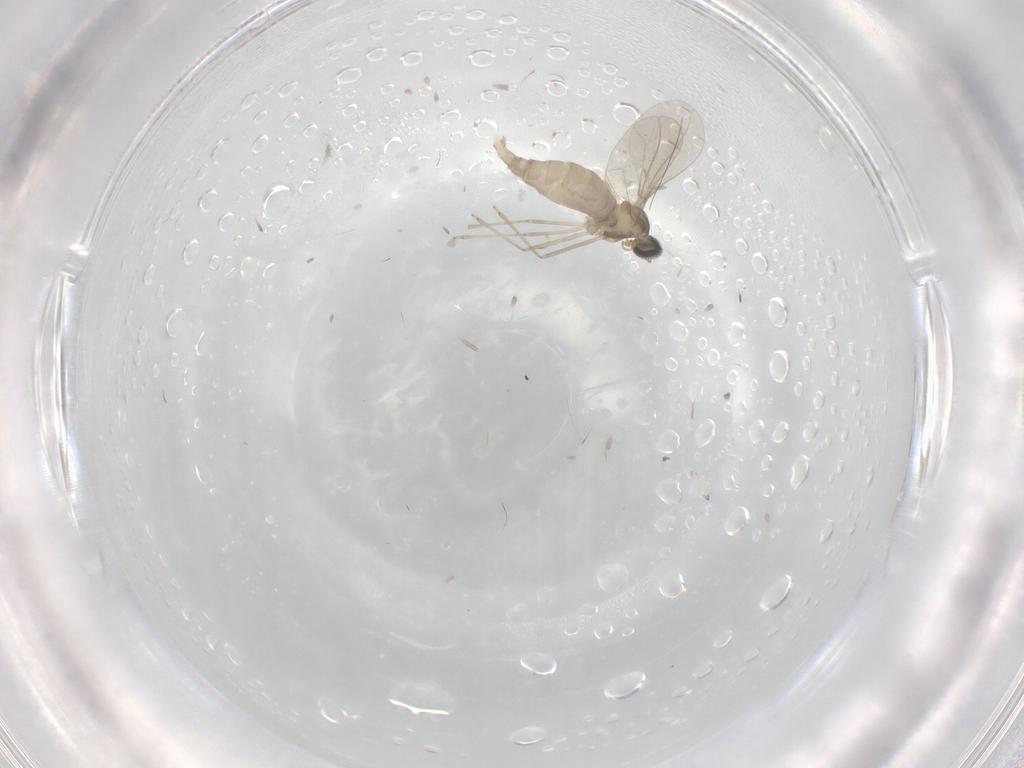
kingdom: Animalia
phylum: Arthropoda
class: Insecta
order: Diptera
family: Cecidomyiidae
